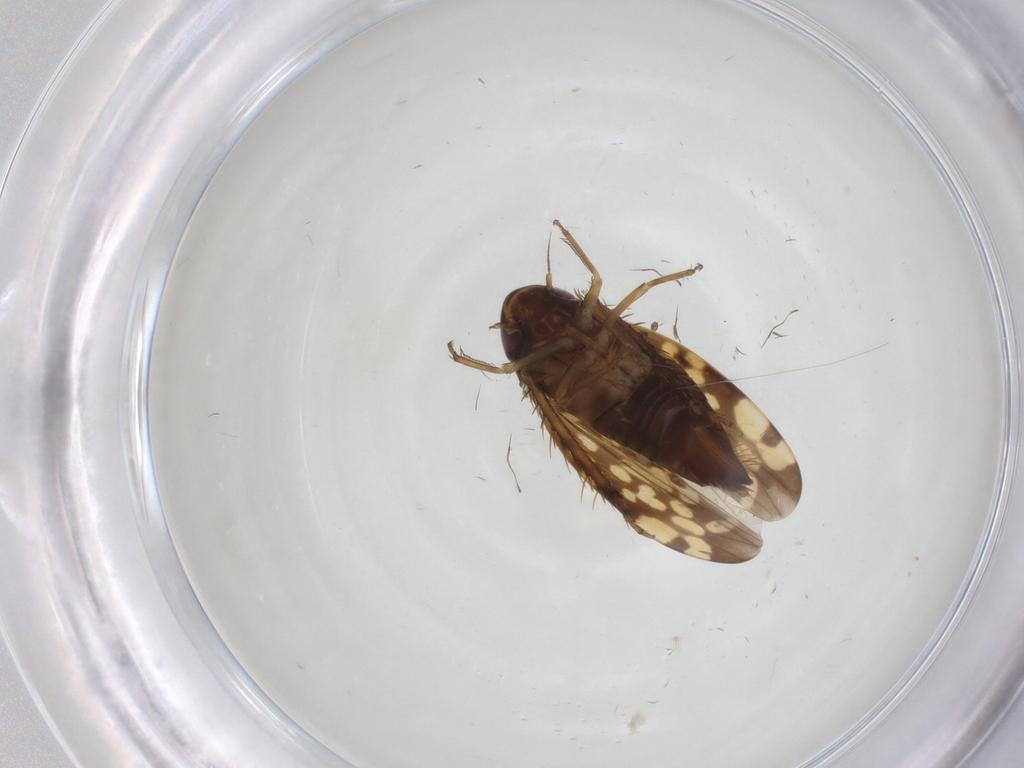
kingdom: Animalia
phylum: Arthropoda
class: Insecta
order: Hemiptera
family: Cicadellidae
